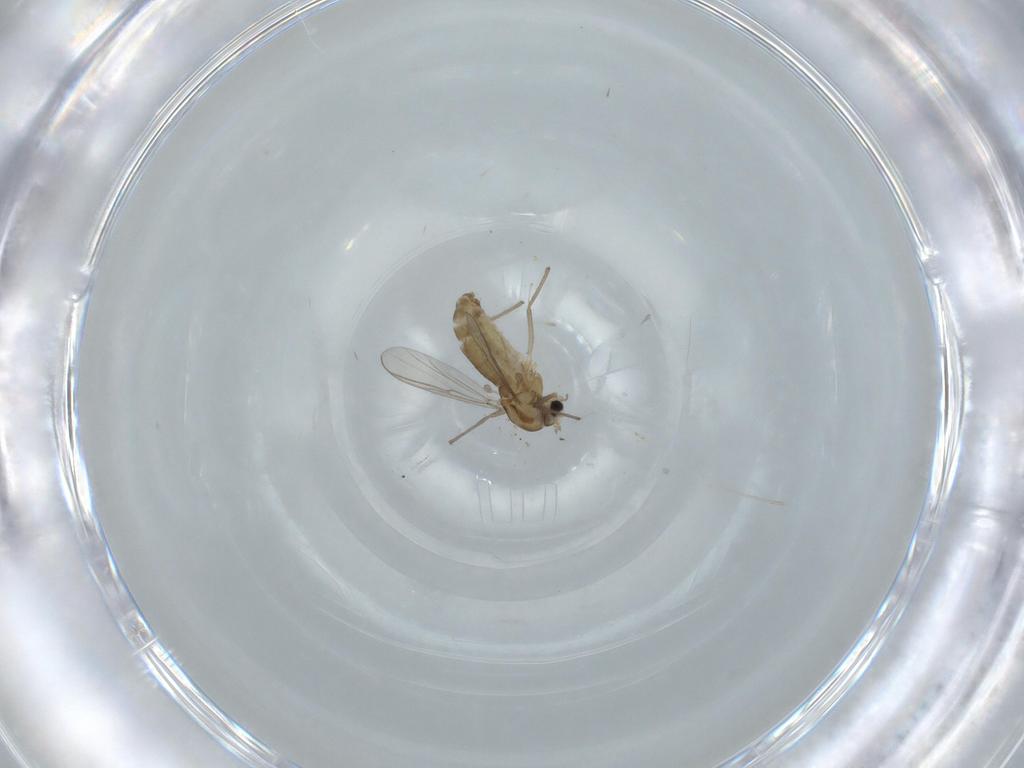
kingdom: Animalia
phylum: Arthropoda
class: Insecta
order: Diptera
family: Chironomidae
